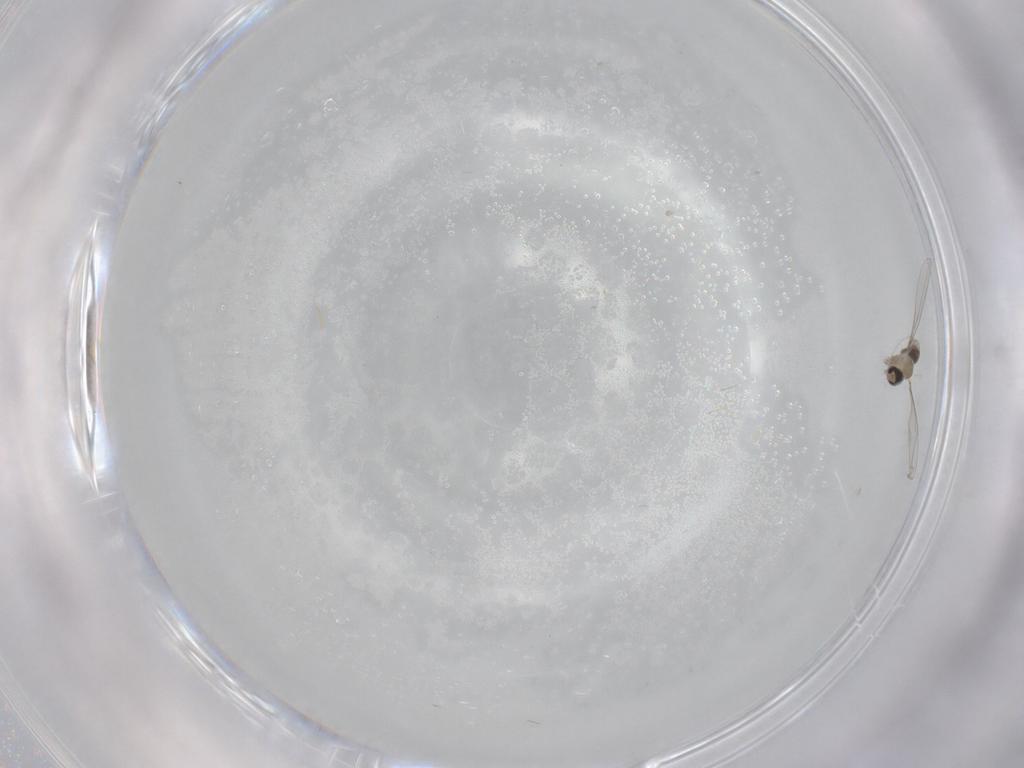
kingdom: Animalia
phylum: Arthropoda
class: Insecta
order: Diptera
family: Cecidomyiidae
